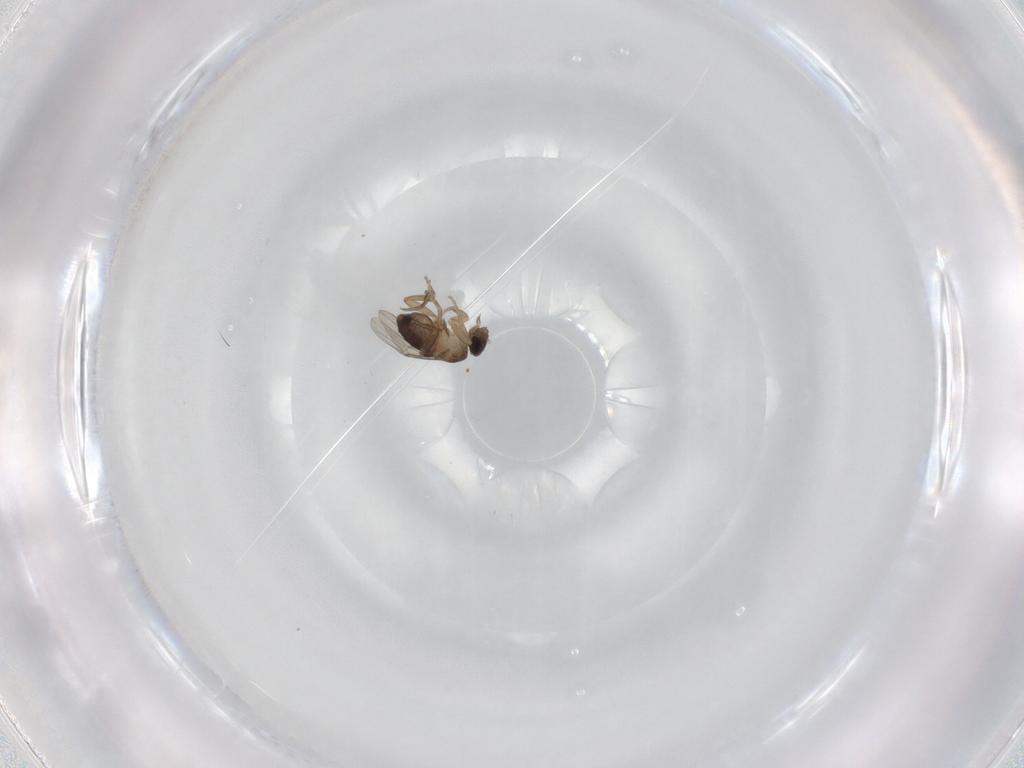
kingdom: Animalia
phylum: Arthropoda
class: Insecta
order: Diptera
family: Phoridae
